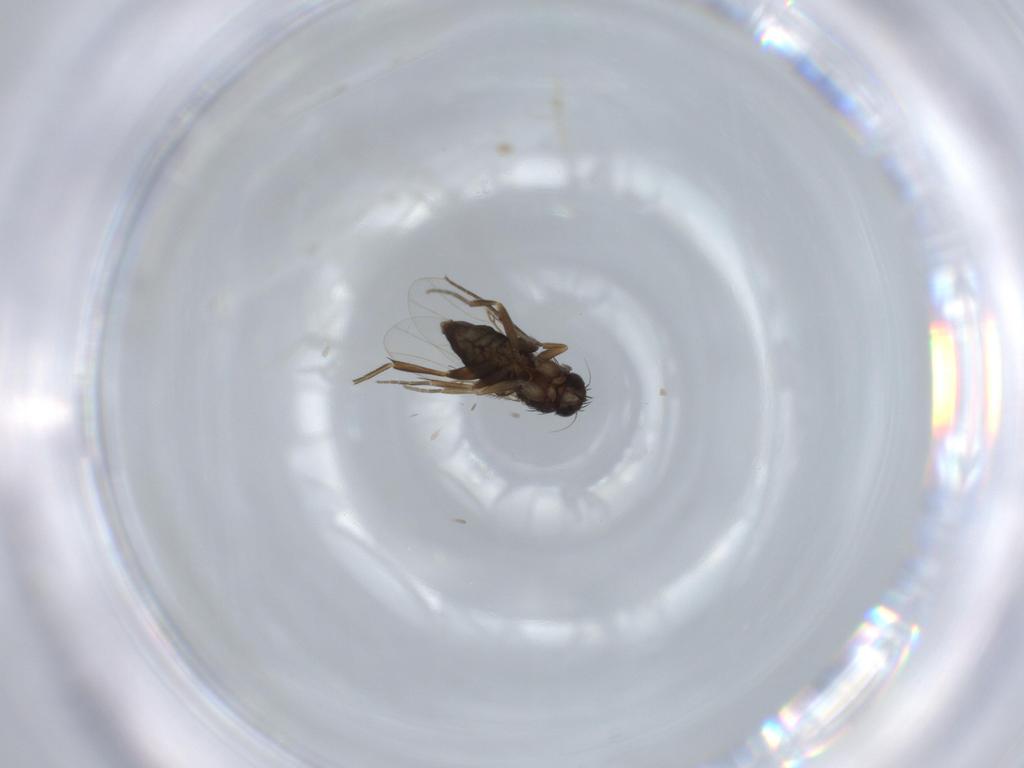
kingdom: Animalia
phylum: Arthropoda
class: Insecta
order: Diptera
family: Phoridae
